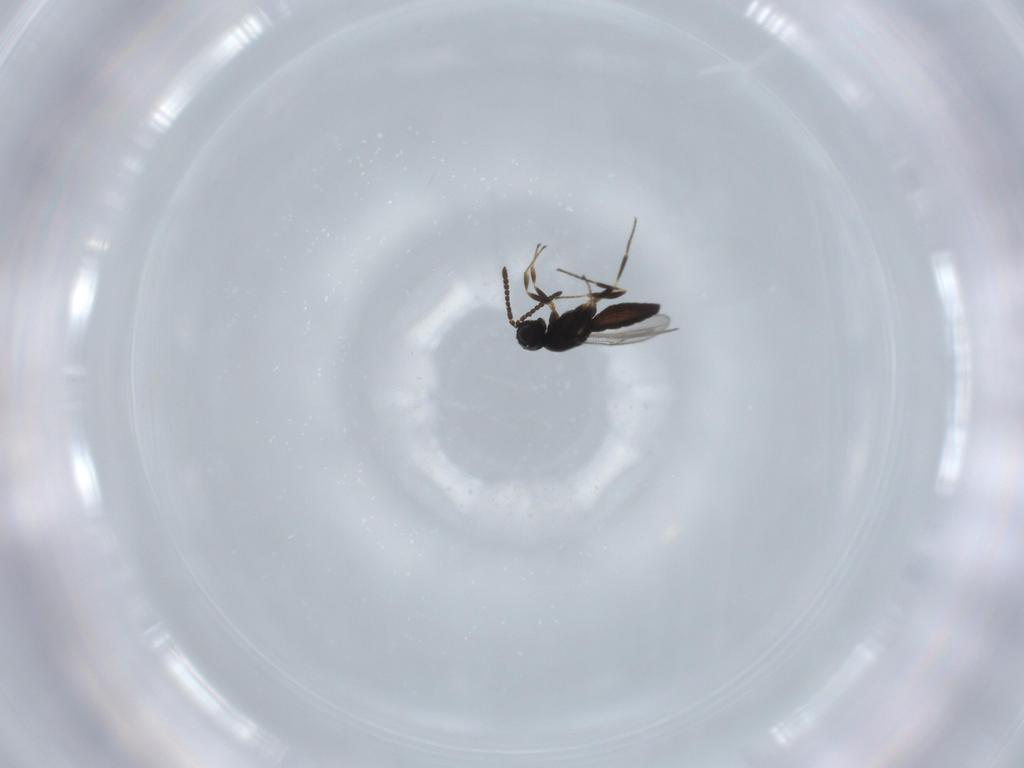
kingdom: Animalia
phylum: Arthropoda
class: Insecta
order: Hymenoptera
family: Scelionidae
